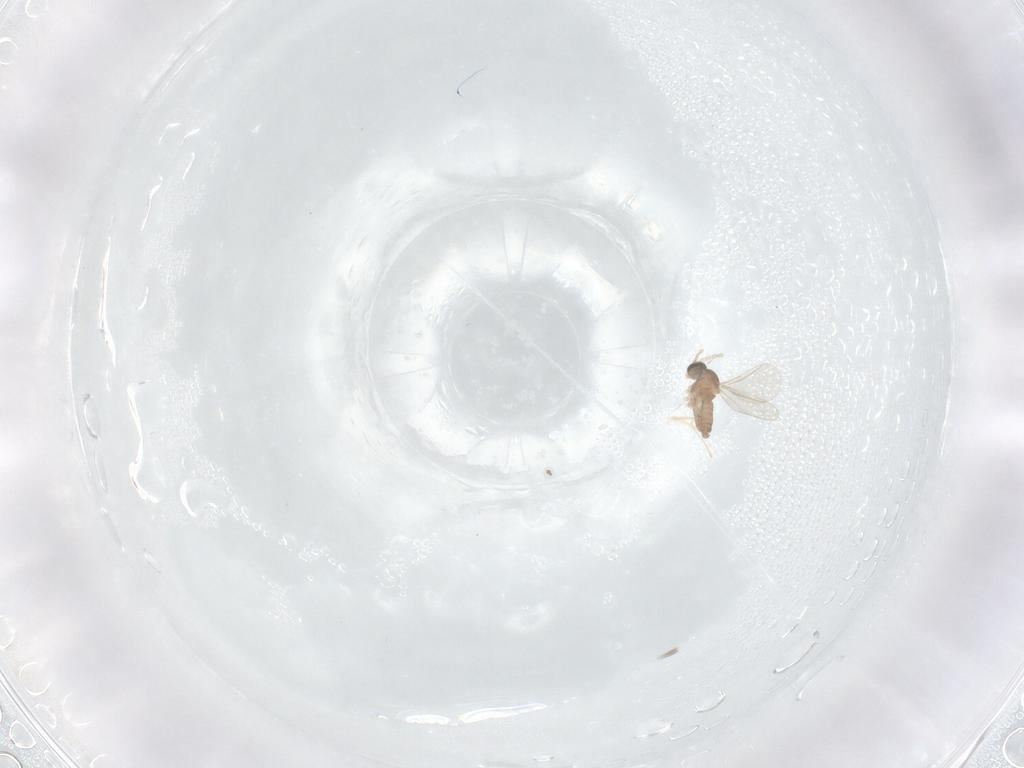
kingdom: Animalia
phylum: Arthropoda
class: Insecta
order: Diptera
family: Cecidomyiidae
